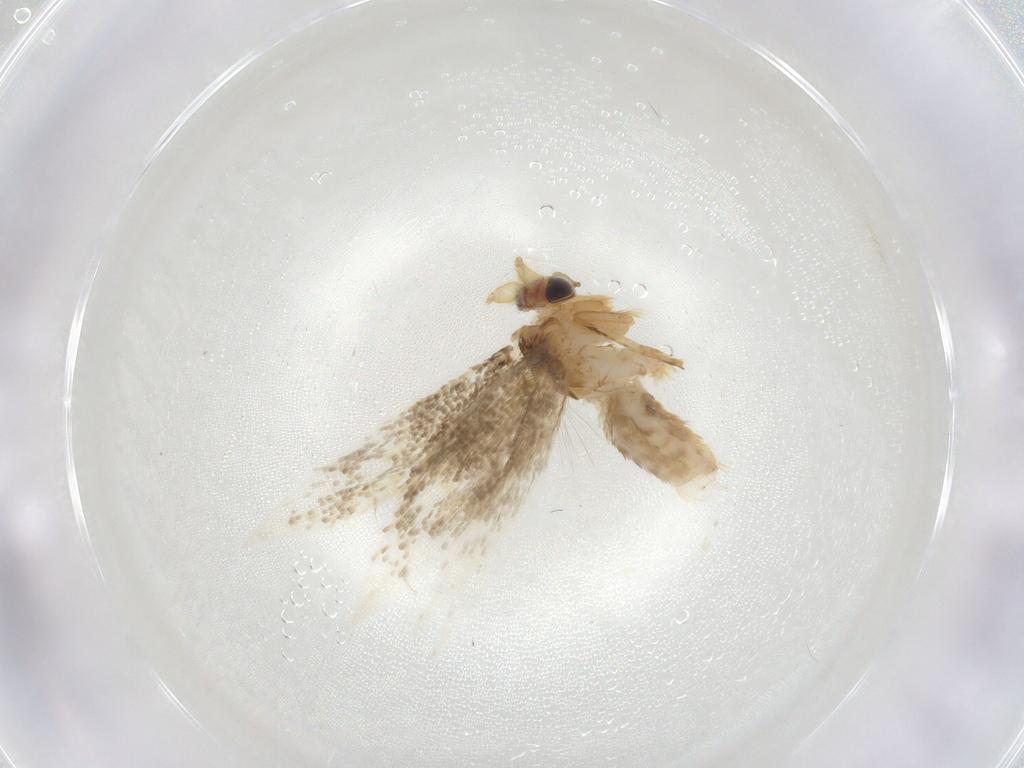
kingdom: Animalia
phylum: Arthropoda
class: Insecta
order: Lepidoptera
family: Nepticulidae
